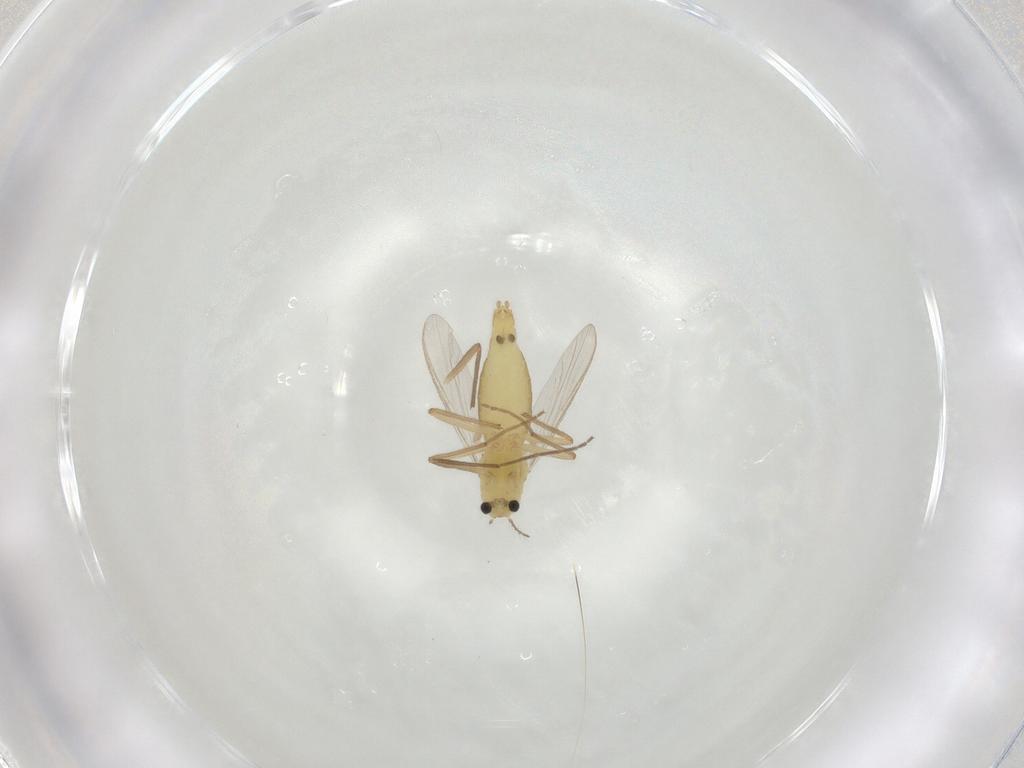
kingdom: Animalia
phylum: Arthropoda
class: Insecta
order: Diptera
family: Chironomidae
